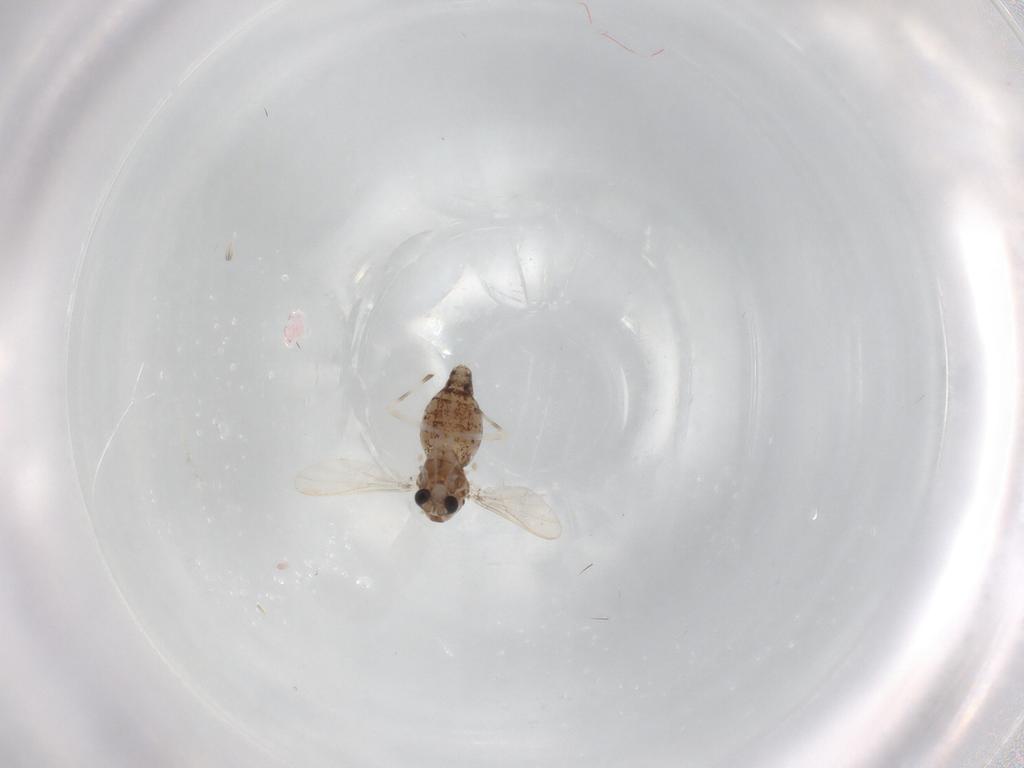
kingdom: Animalia
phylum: Arthropoda
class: Insecta
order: Diptera
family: Chironomidae
